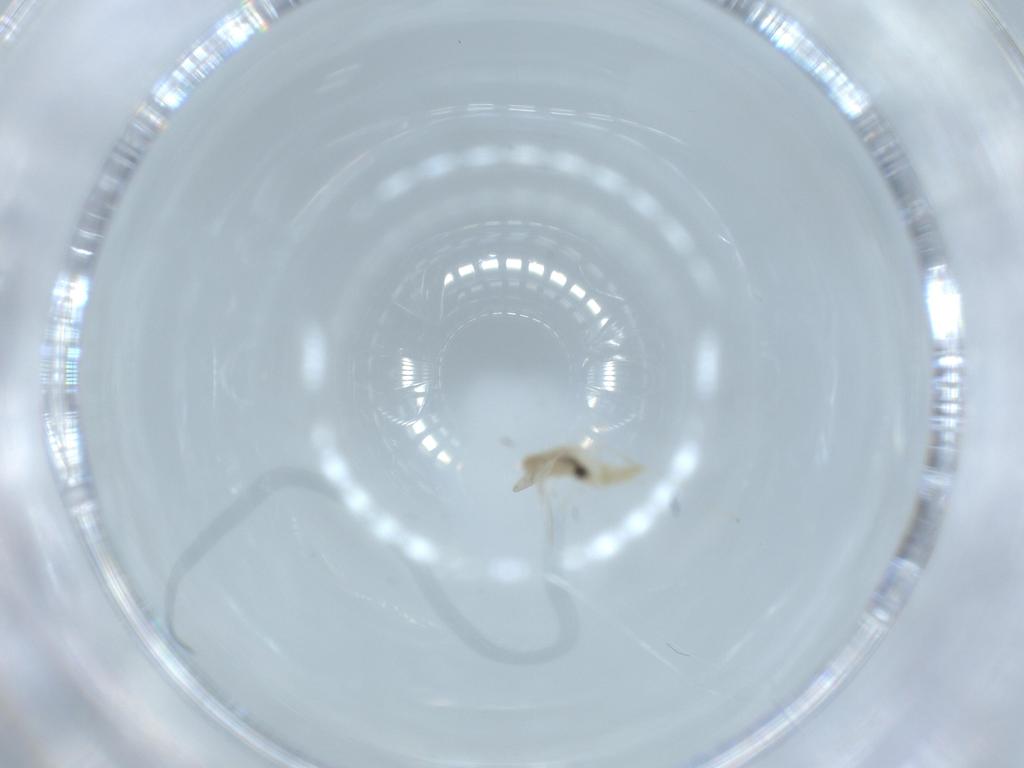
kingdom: Animalia
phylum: Arthropoda
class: Insecta
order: Diptera
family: Cecidomyiidae
